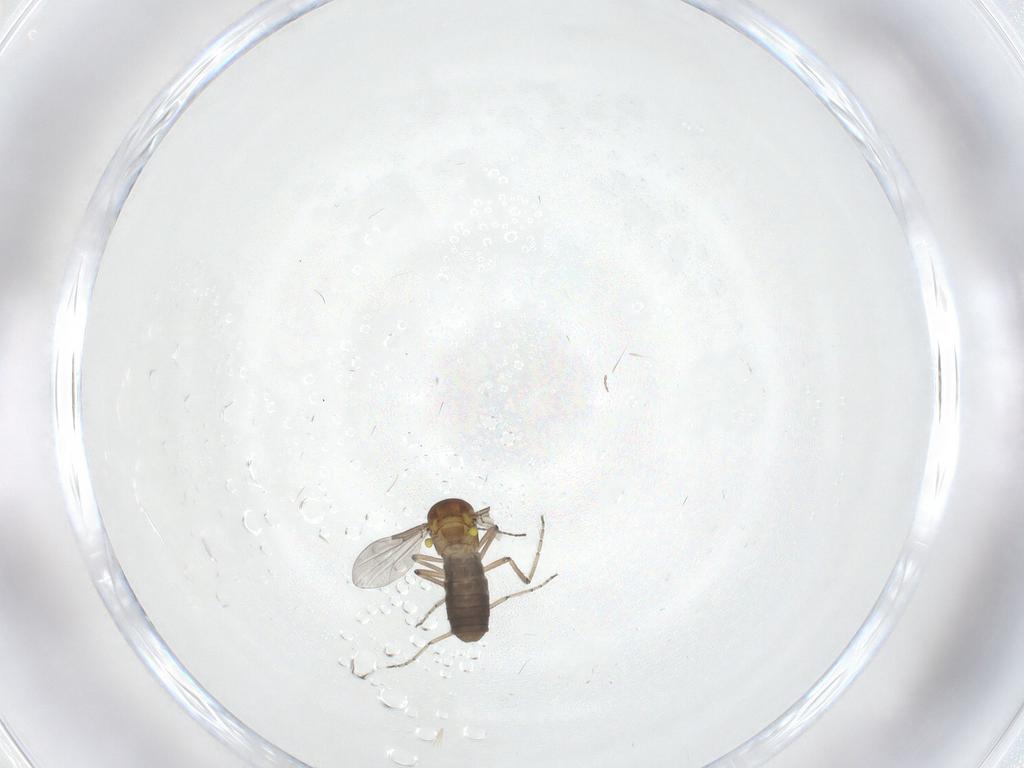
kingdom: Animalia
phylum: Arthropoda
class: Insecta
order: Diptera
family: Ceratopogonidae
